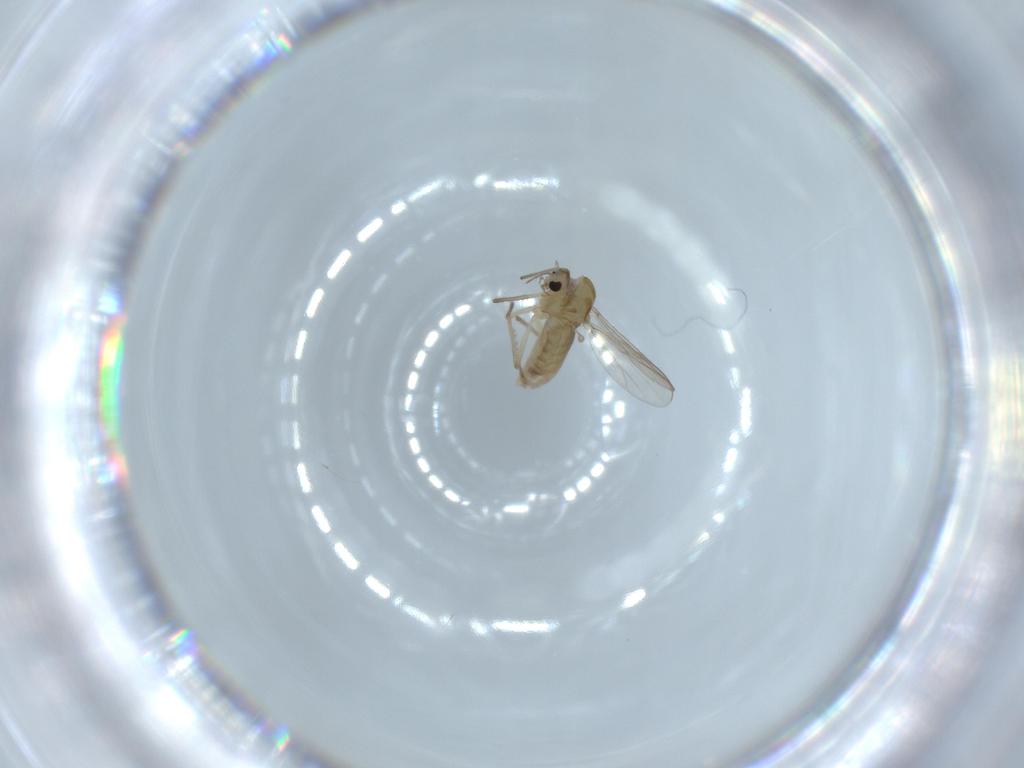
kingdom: Animalia
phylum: Arthropoda
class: Insecta
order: Diptera
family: Chironomidae
